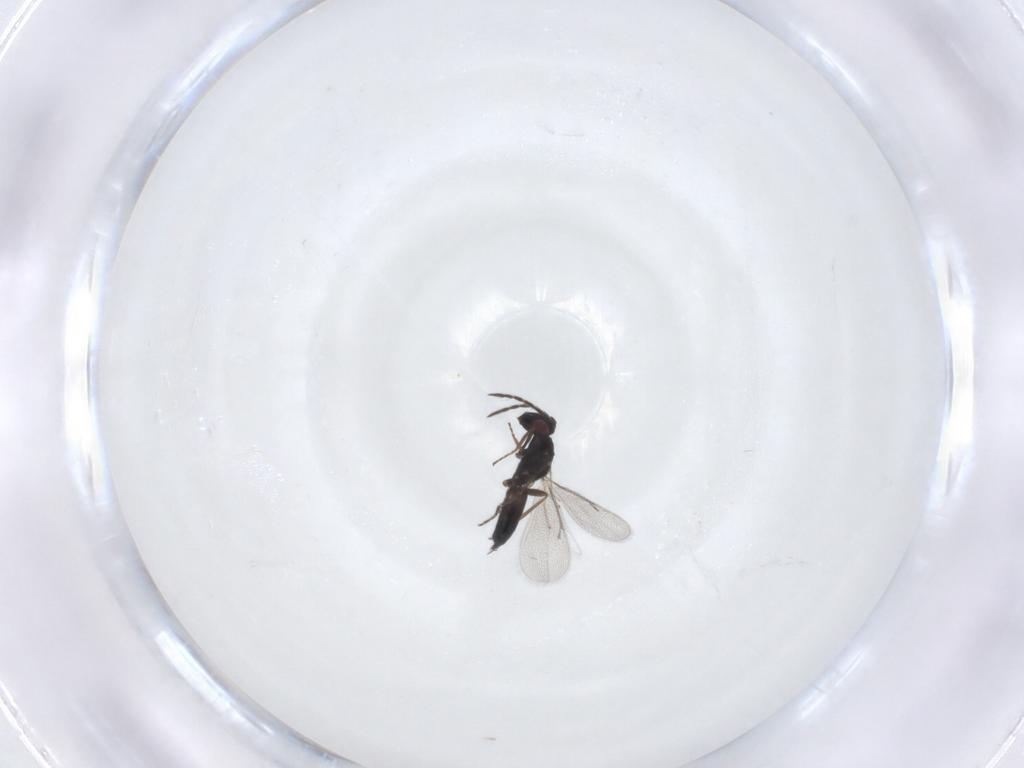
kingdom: Animalia
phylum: Arthropoda
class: Insecta
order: Hymenoptera
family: Eulophidae
